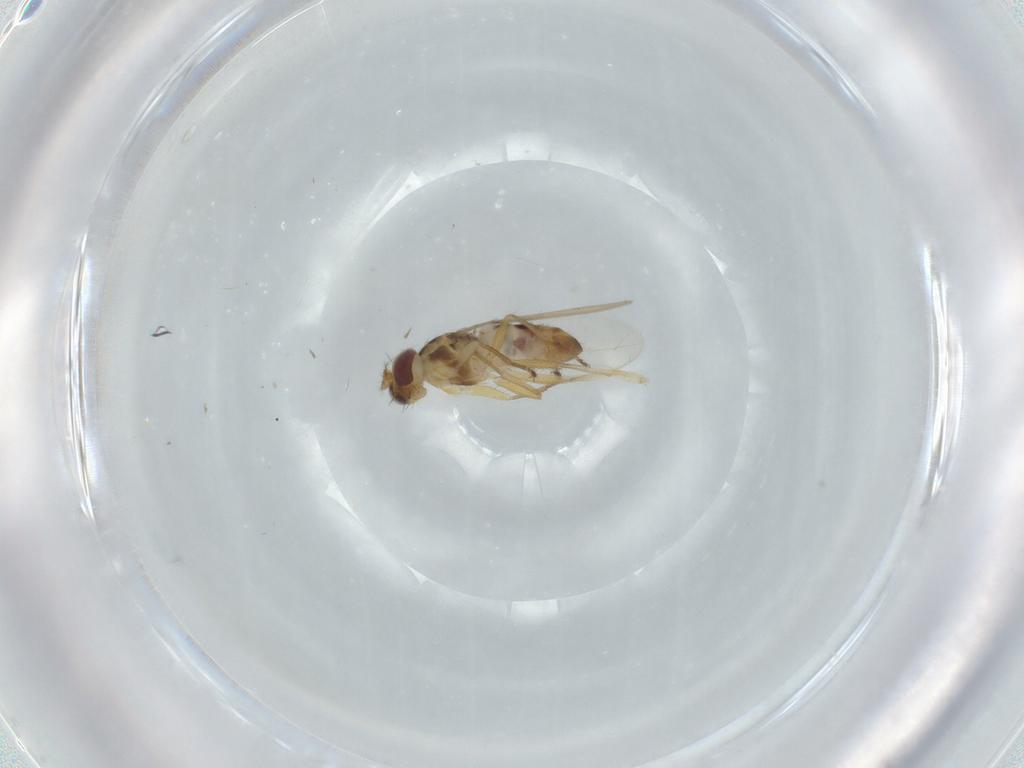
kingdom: Animalia
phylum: Arthropoda
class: Insecta
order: Diptera
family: Periscelididae
